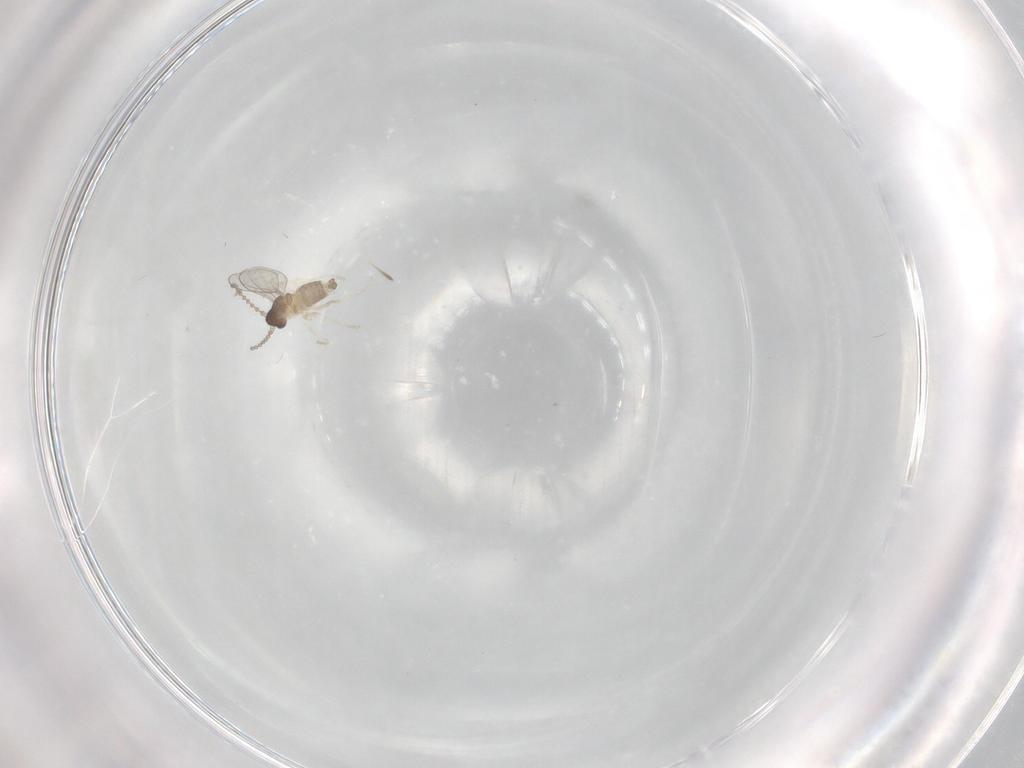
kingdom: Animalia
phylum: Arthropoda
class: Insecta
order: Diptera
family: Cecidomyiidae
